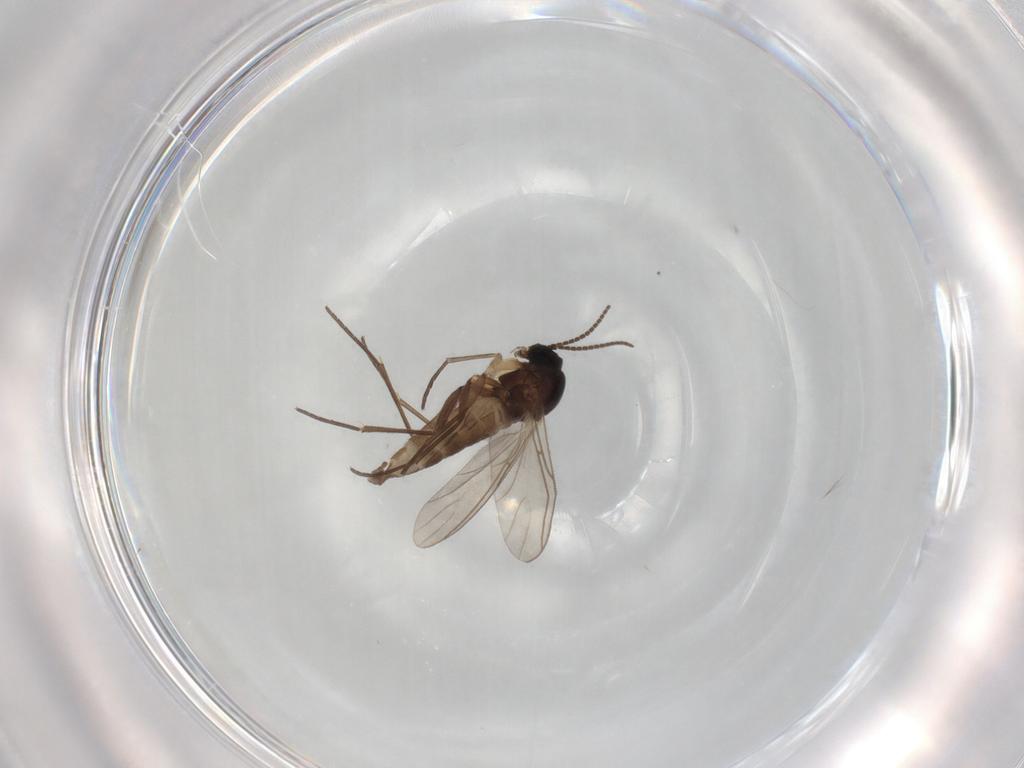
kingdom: Animalia
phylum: Arthropoda
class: Insecta
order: Diptera
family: Sciaridae
